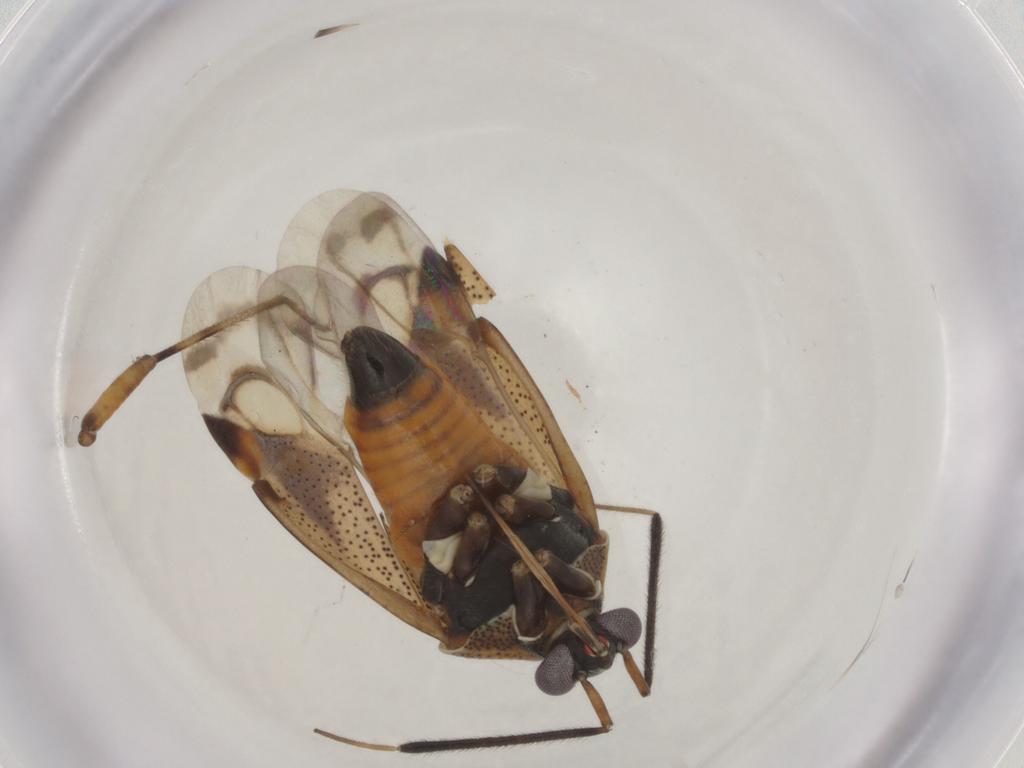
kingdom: Animalia
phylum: Arthropoda
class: Insecta
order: Hemiptera
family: Miridae
